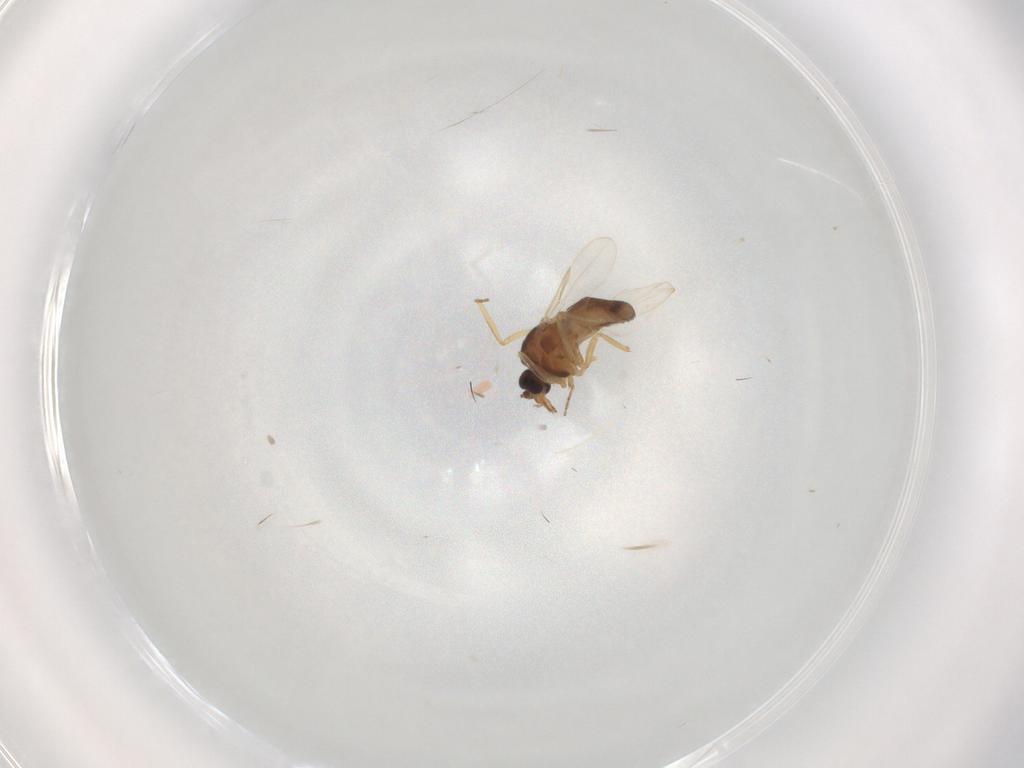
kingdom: Animalia
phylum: Arthropoda
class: Insecta
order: Diptera
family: Ceratopogonidae
